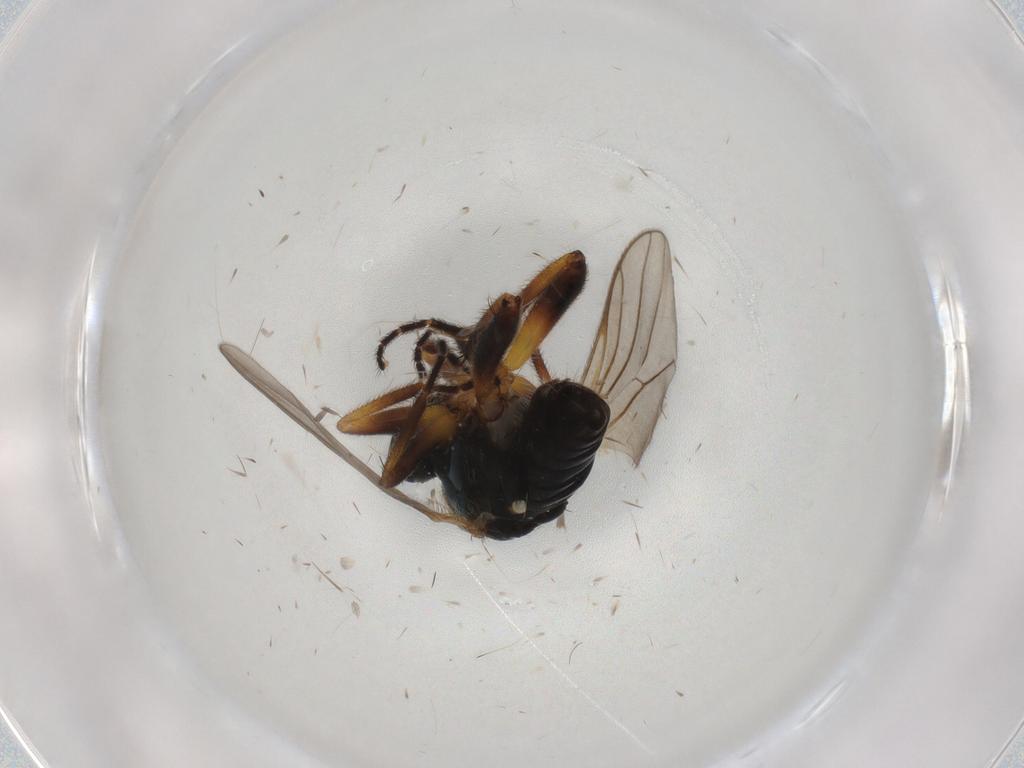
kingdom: Animalia
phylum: Arthropoda
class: Insecta
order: Diptera
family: Hybotidae
